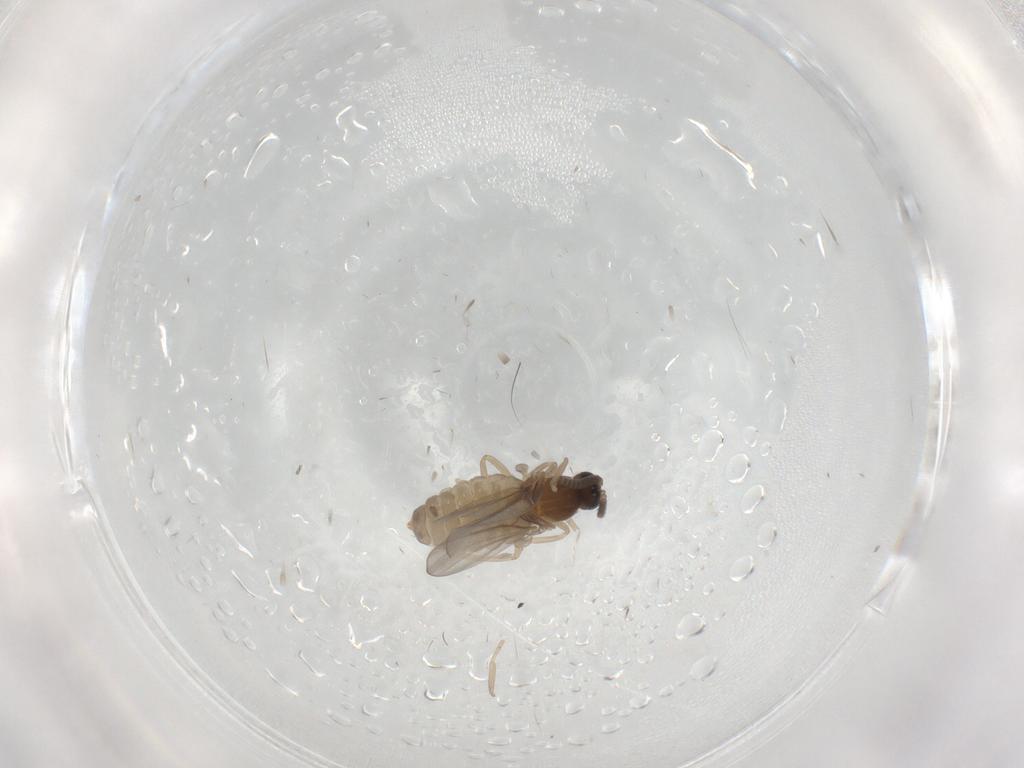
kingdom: Animalia
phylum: Arthropoda
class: Insecta
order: Diptera
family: Cecidomyiidae
